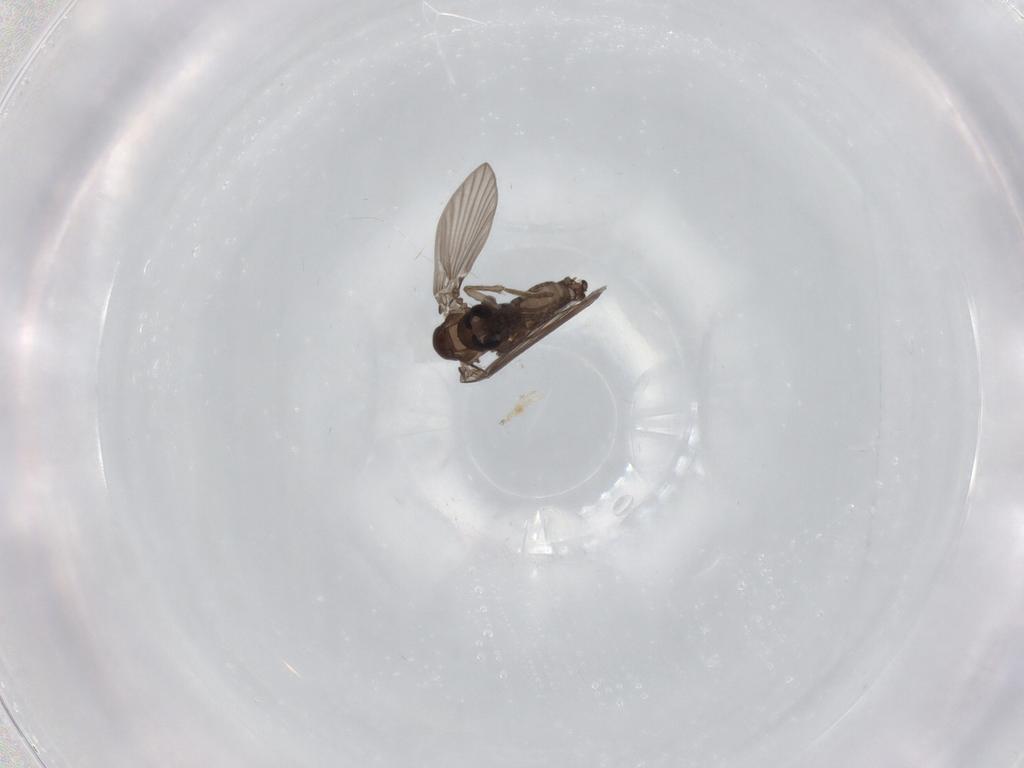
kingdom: Animalia
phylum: Arthropoda
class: Insecta
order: Diptera
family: Psychodidae
